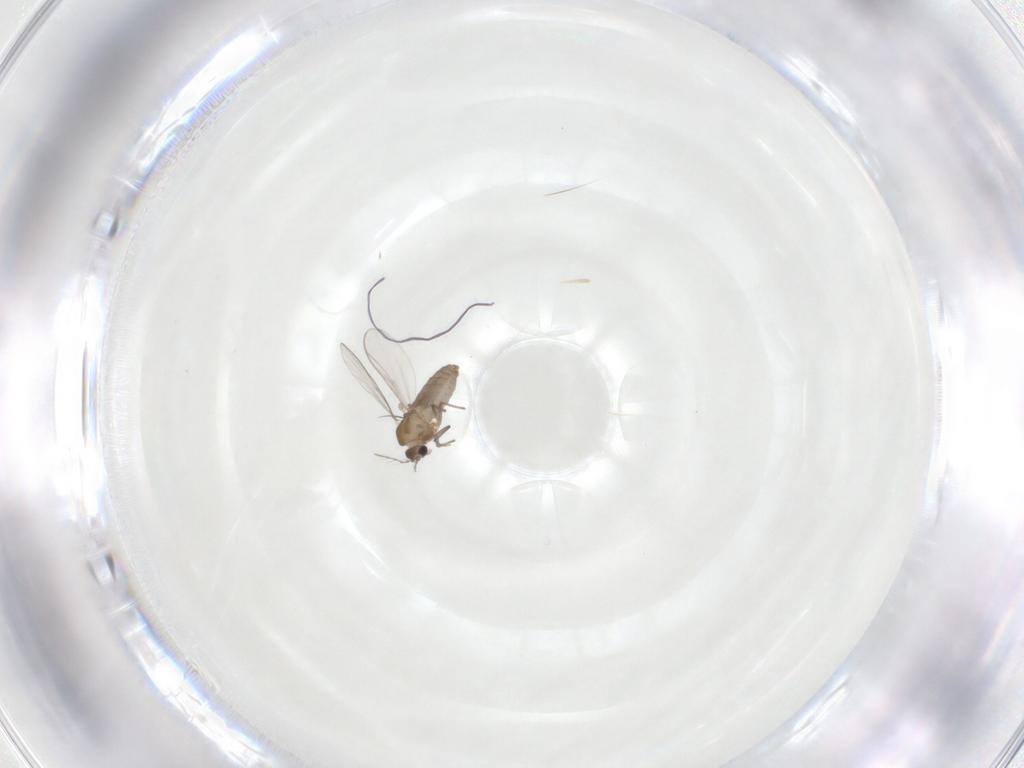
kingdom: Animalia
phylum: Arthropoda
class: Insecta
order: Diptera
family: Chironomidae
